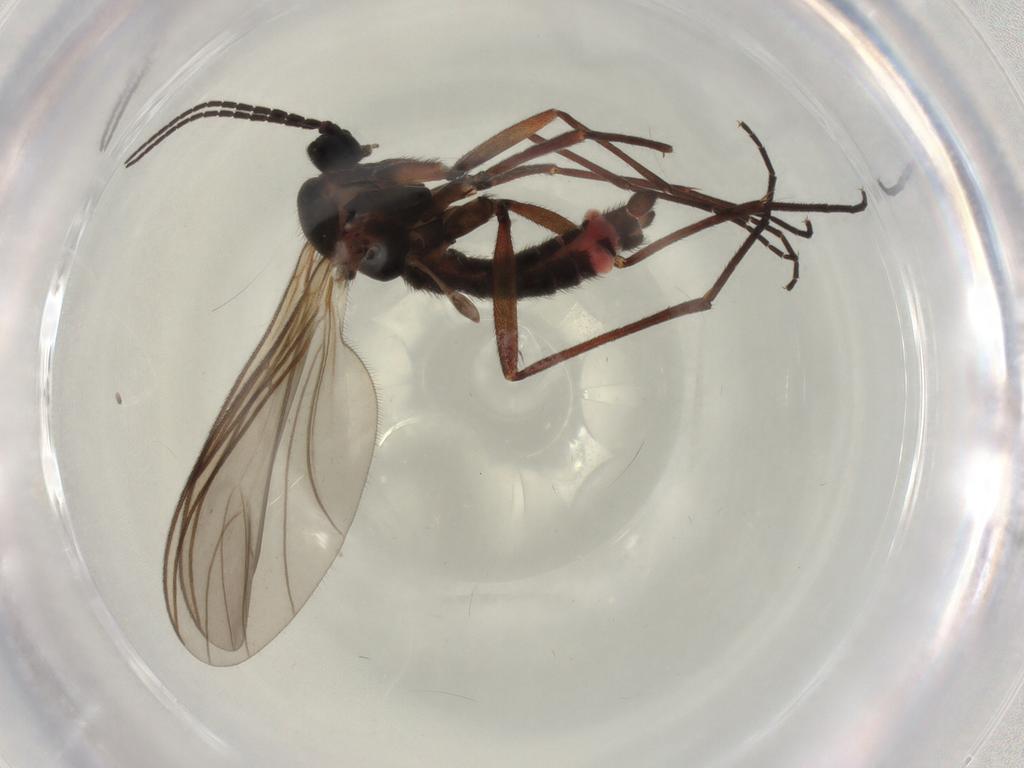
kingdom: Animalia
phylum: Arthropoda
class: Insecta
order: Diptera
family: Sciaridae
